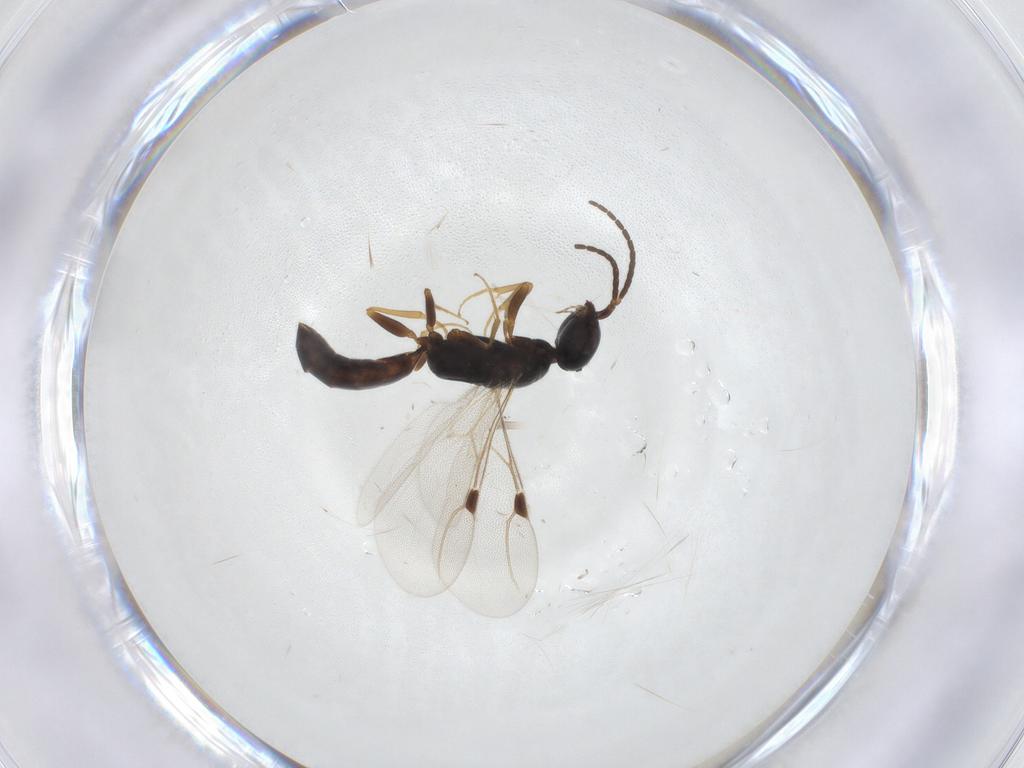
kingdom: Animalia
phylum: Arthropoda
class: Insecta
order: Hymenoptera
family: Bethylidae
